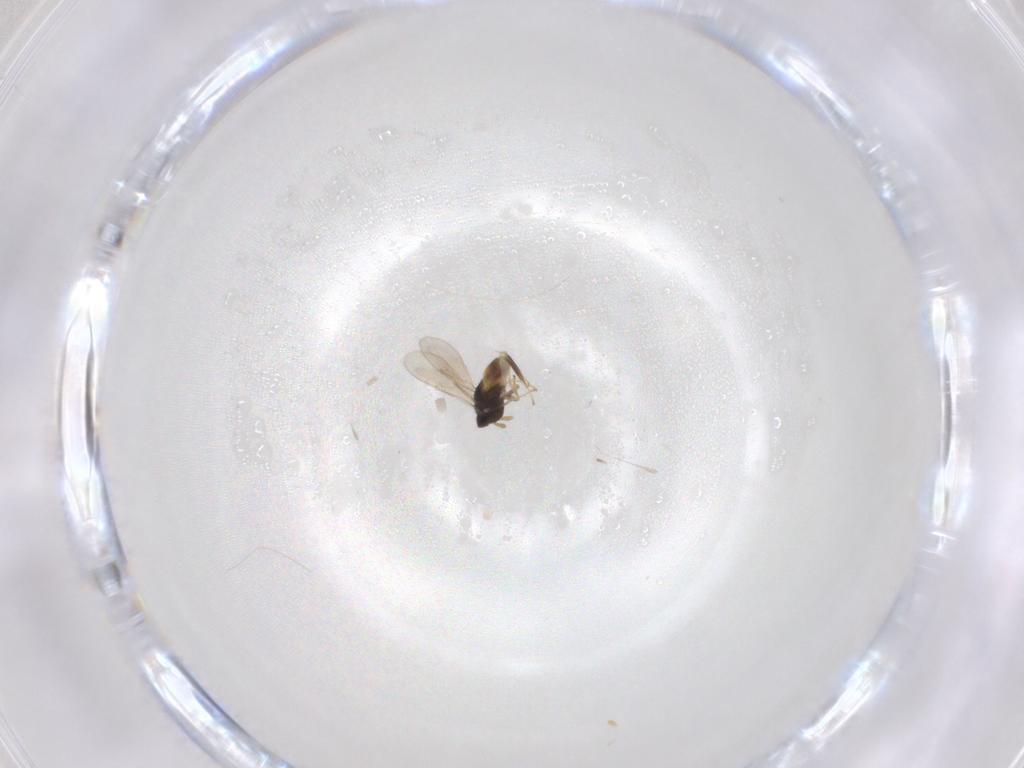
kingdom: Animalia
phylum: Arthropoda
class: Insecta
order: Hymenoptera
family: Aphelinidae
